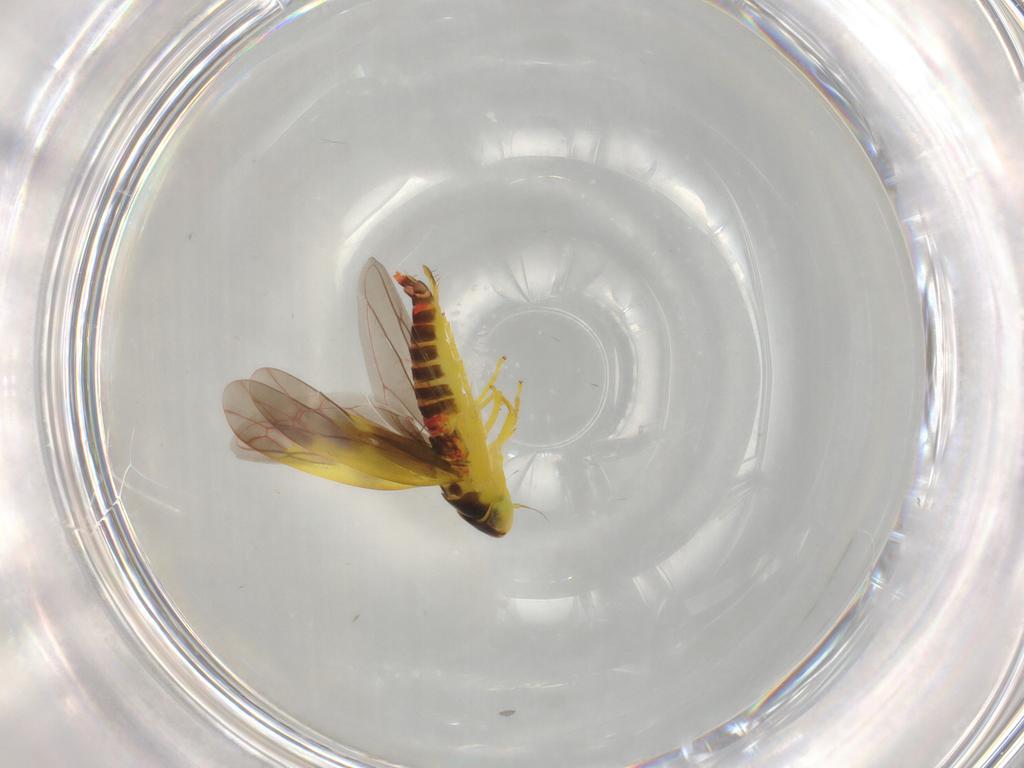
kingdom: Animalia
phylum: Arthropoda
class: Insecta
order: Hemiptera
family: Cicadellidae
